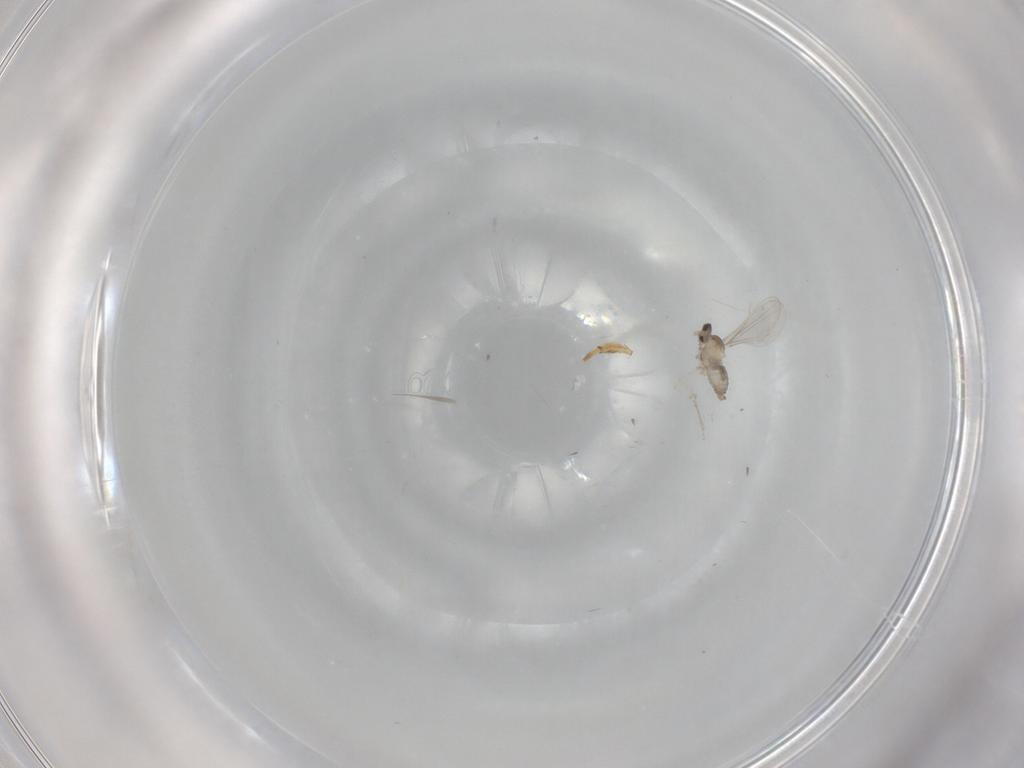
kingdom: Animalia
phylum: Arthropoda
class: Insecta
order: Diptera
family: Cecidomyiidae
